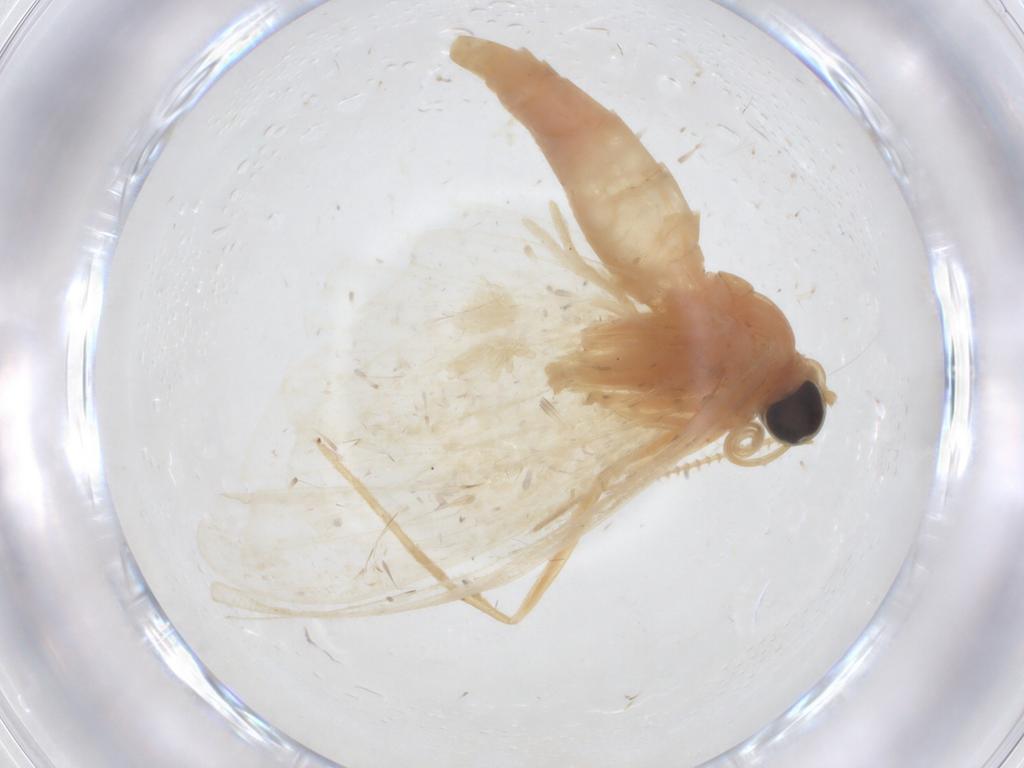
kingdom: Animalia
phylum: Arthropoda
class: Insecta
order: Lepidoptera
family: Geometridae
